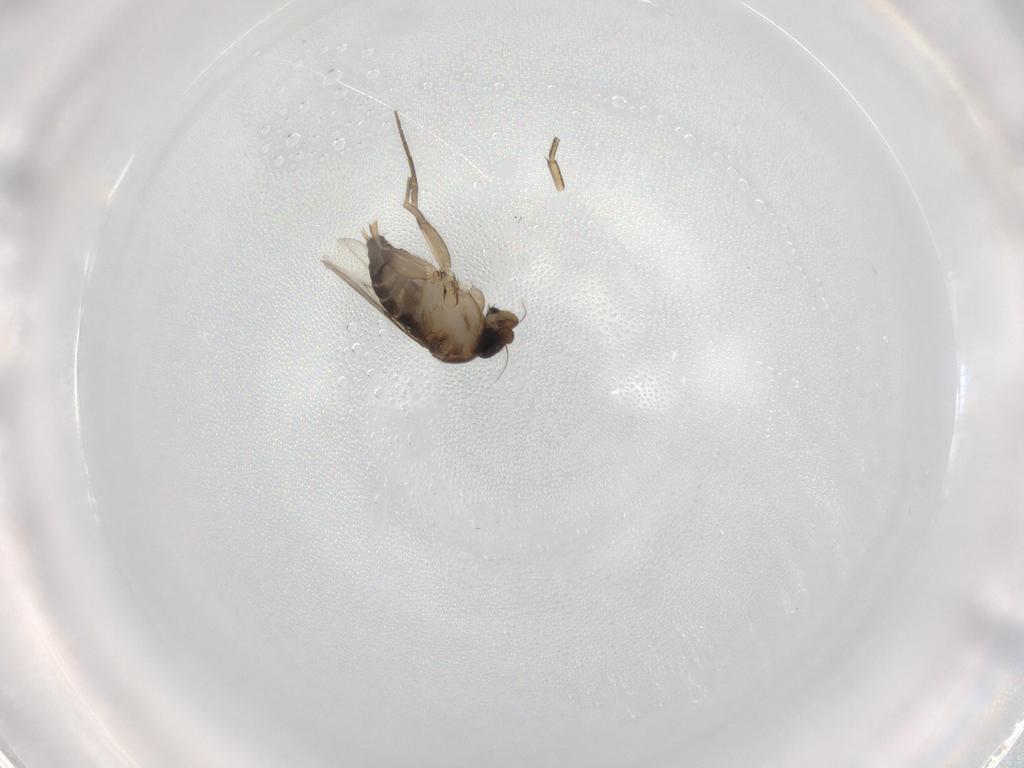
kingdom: Animalia
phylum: Arthropoda
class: Insecta
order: Diptera
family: Phoridae
